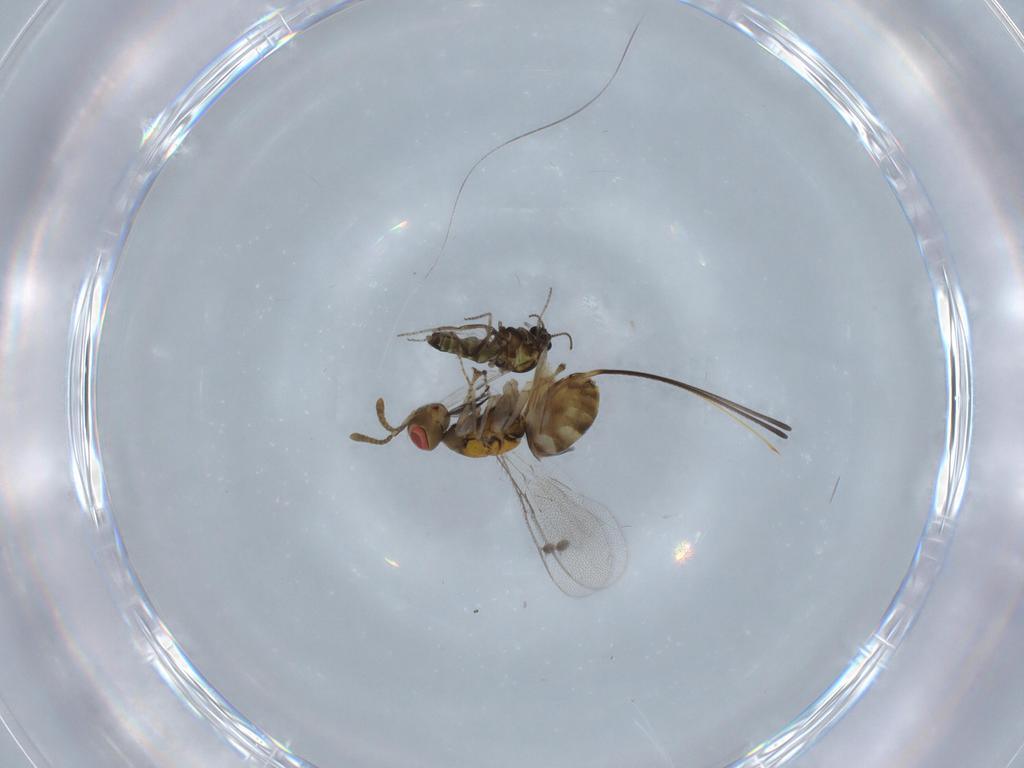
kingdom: Animalia
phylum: Arthropoda
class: Insecta
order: Diptera
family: Ceratopogonidae
